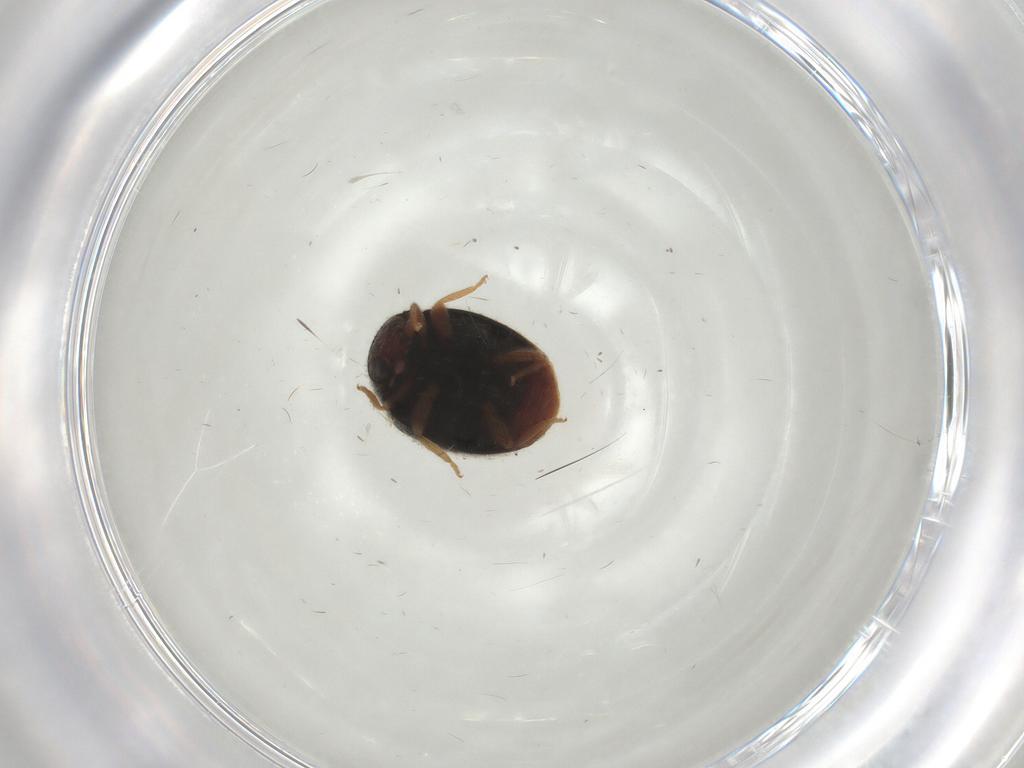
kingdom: Animalia
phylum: Arthropoda
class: Insecta
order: Coleoptera
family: Coccinellidae
